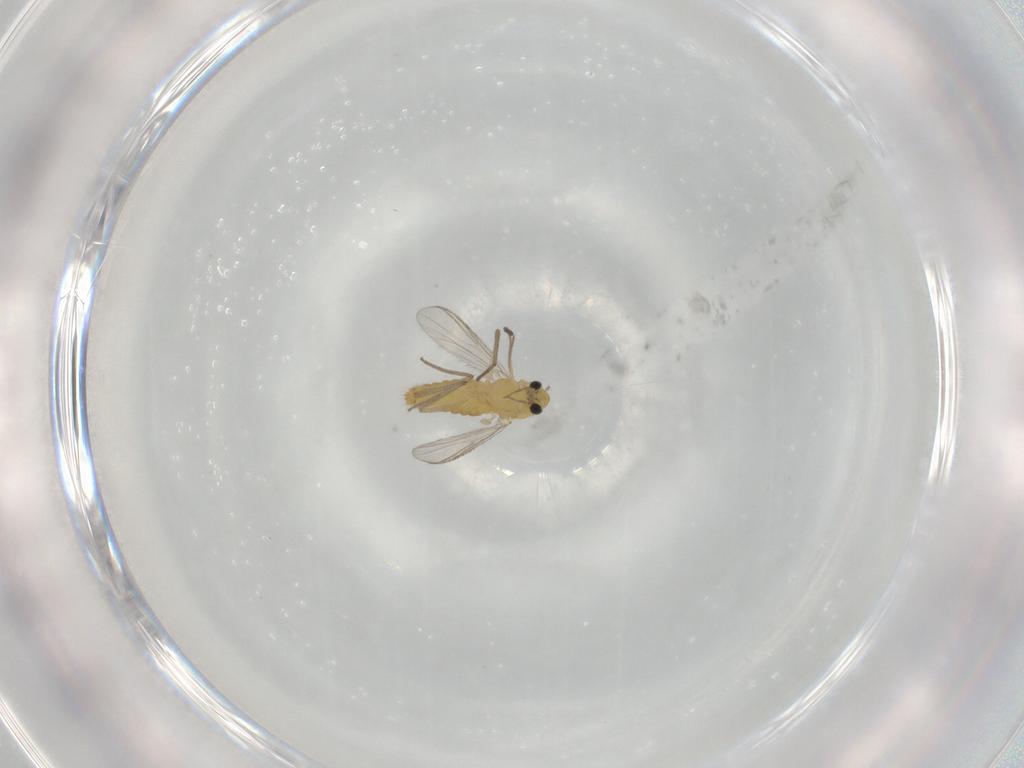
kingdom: Animalia
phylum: Arthropoda
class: Insecta
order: Diptera
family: Chironomidae
